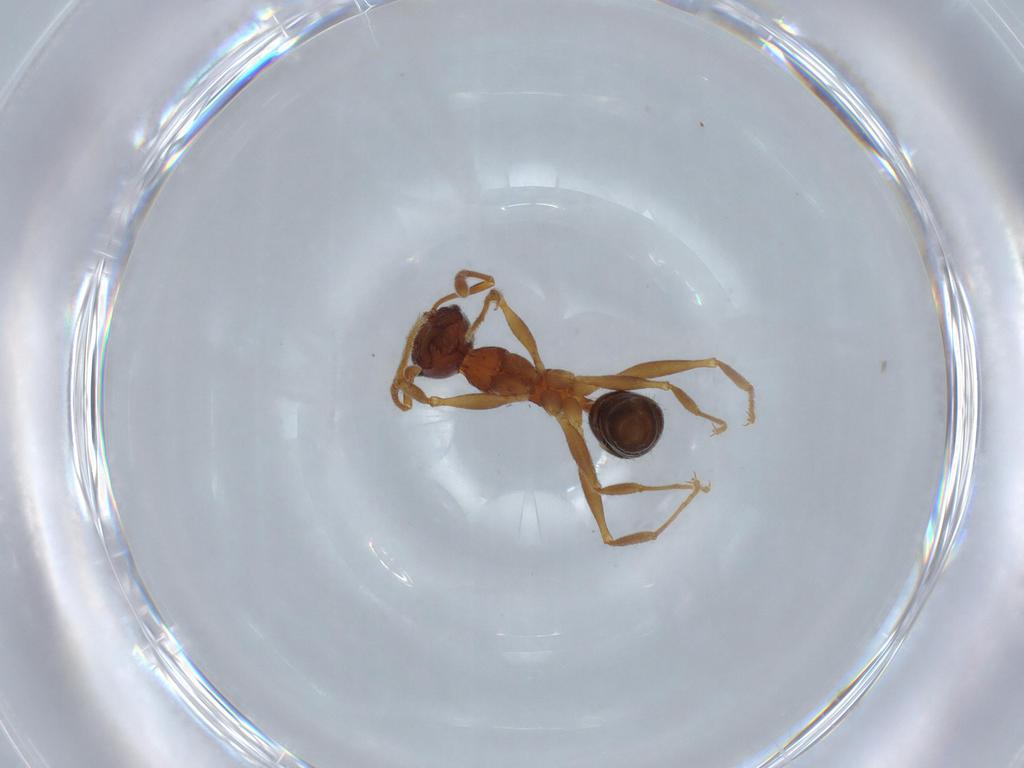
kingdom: Animalia
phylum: Arthropoda
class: Insecta
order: Hymenoptera
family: Formicidae
